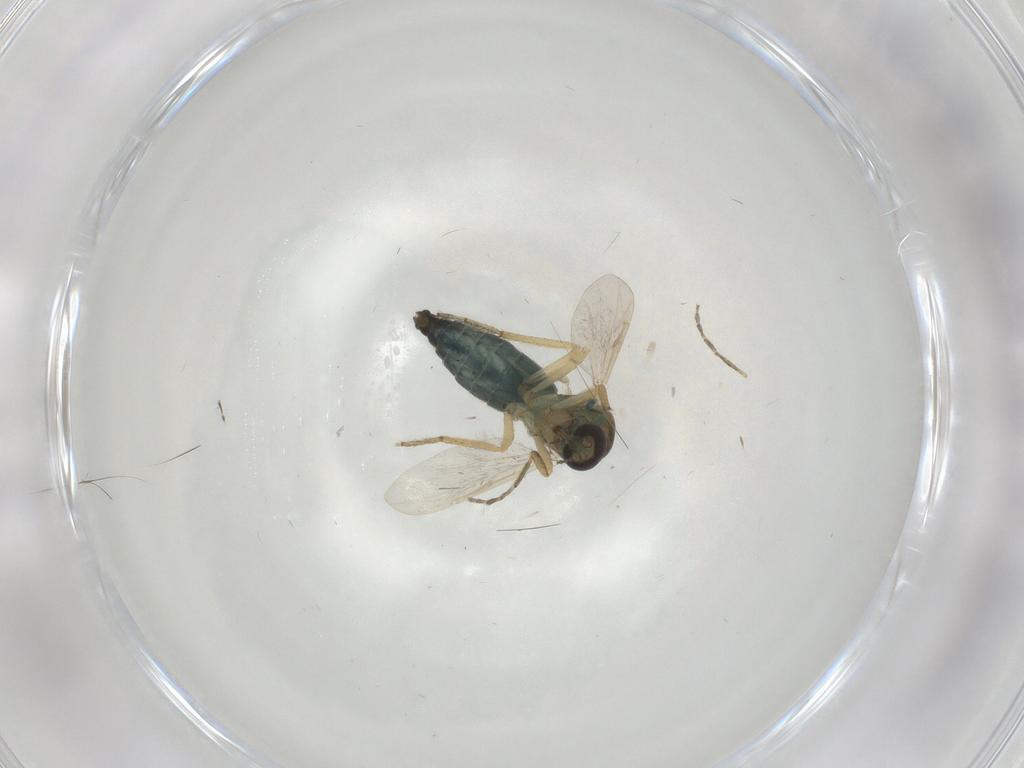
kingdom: Animalia
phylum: Arthropoda
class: Insecta
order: Diptera
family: Ceratopogonidae
